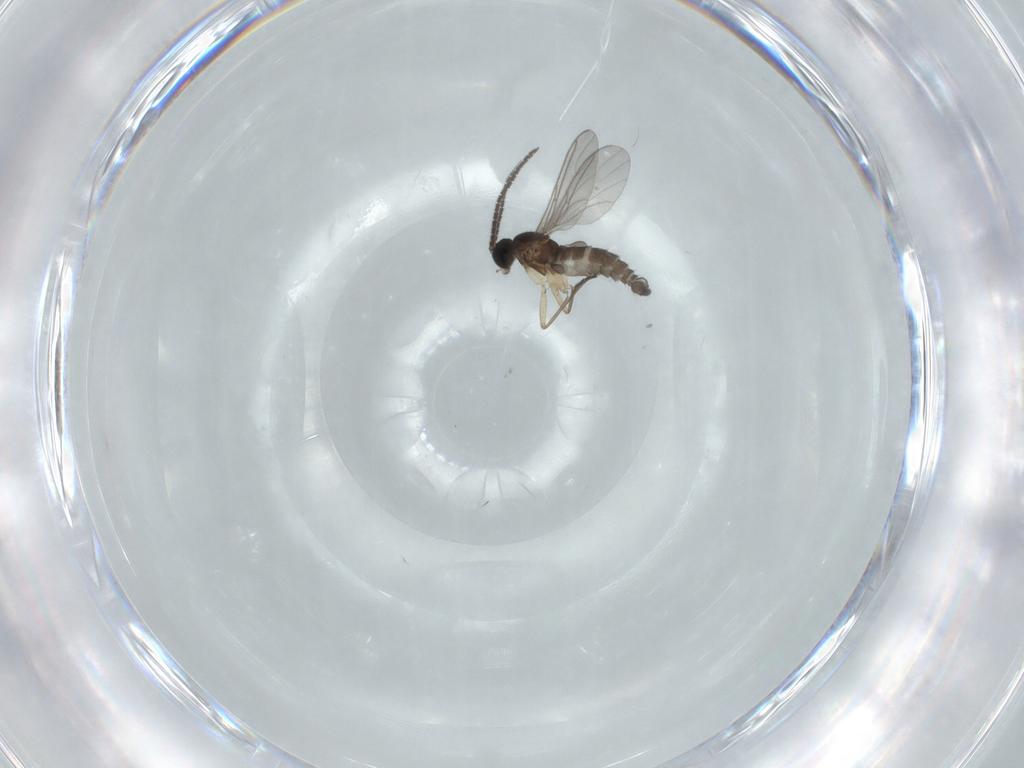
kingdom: Animalia
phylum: Arthropoda
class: Insecta
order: Diptera
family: Sciaridae
